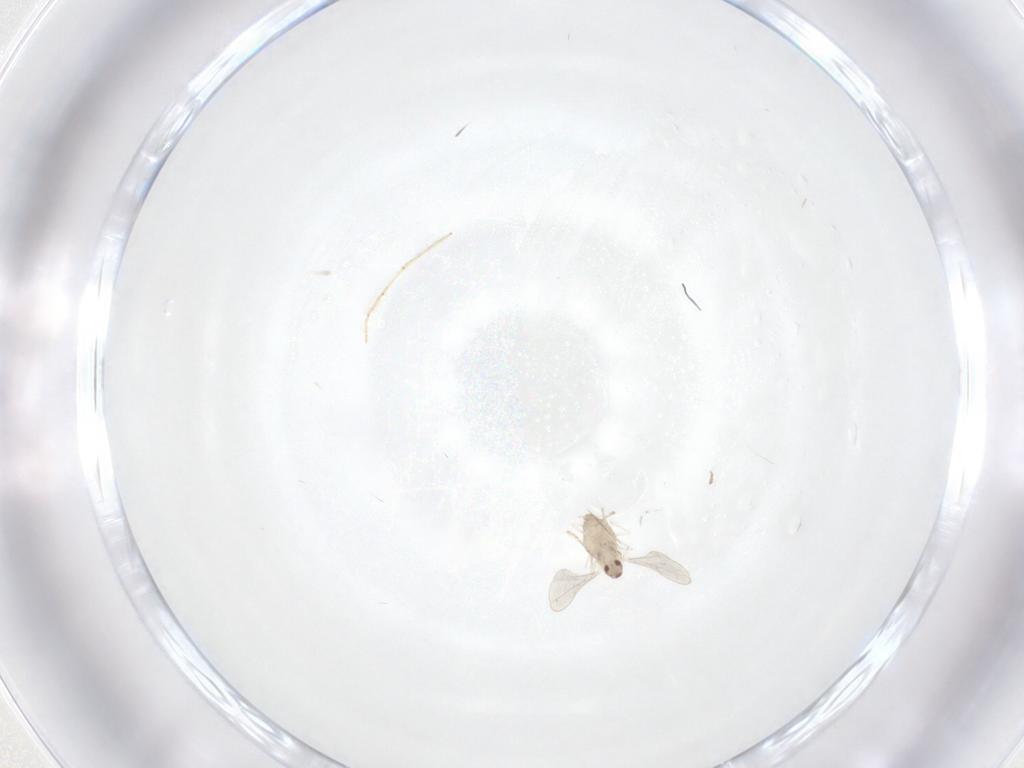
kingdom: Animalia
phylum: Arthropoda
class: Insecta
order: Diptera
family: Cecidomyiidae
